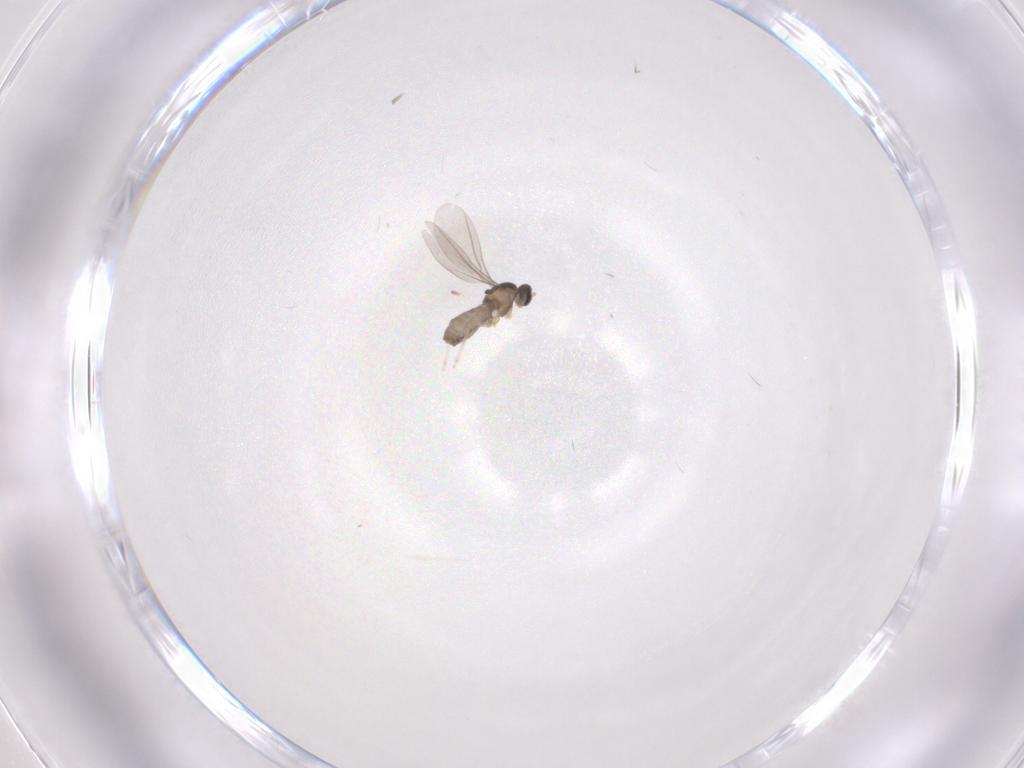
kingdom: Animalia
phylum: Arthropoda
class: Insecta
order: Diptera
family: Cecidomyiidae
